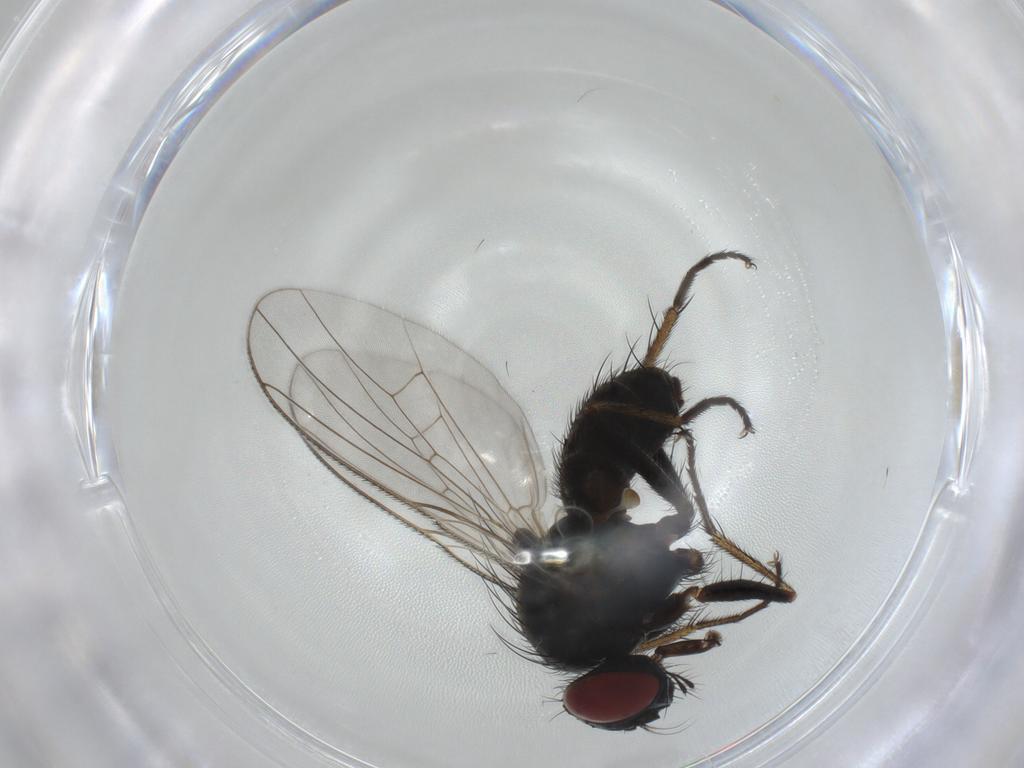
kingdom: Animalia
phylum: Arthropoda
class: Insecta
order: Diptera
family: Muscidae
